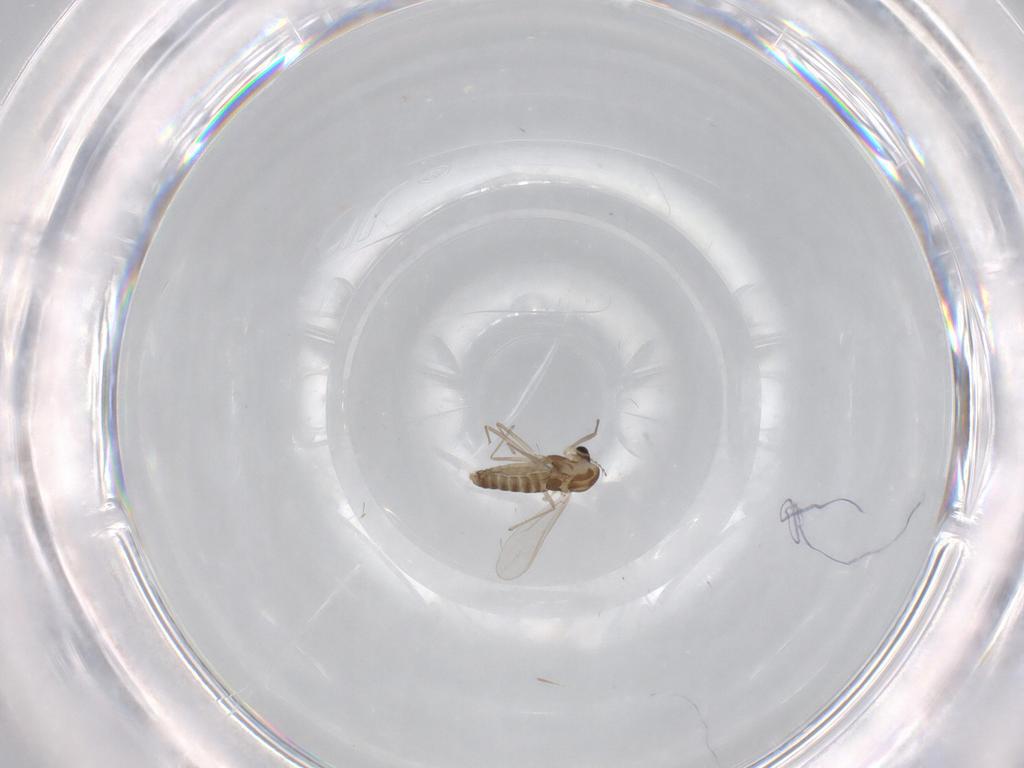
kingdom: Animalia
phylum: Arthropoda
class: Insecta
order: Diptera
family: Chironomidae
